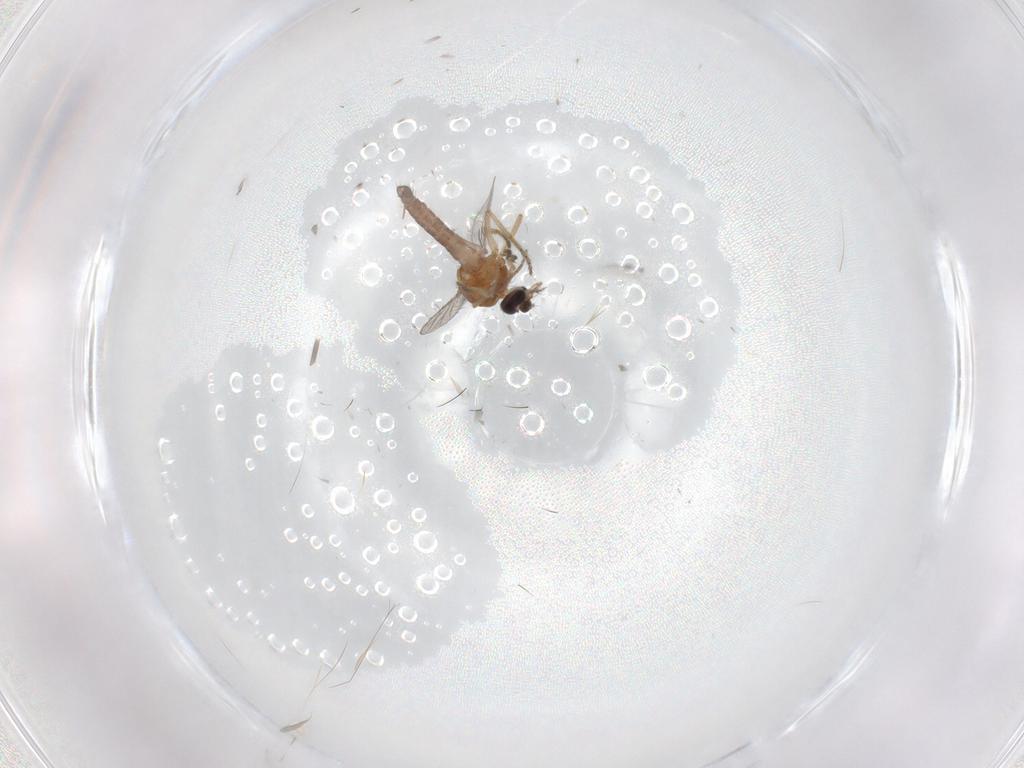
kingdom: Animalia
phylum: Arthropoda
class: Insecta
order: Diptera
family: Ceratopogonidae
